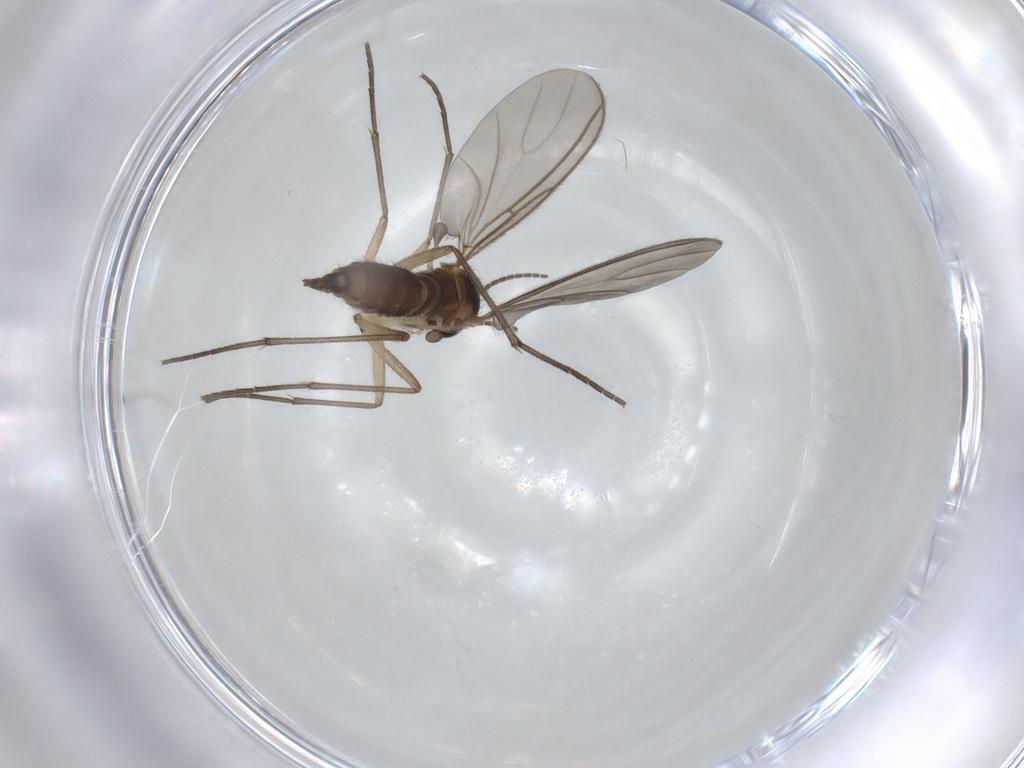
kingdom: Animalia
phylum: Arthropoda
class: Insecta
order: Diptera
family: Sciaridae
